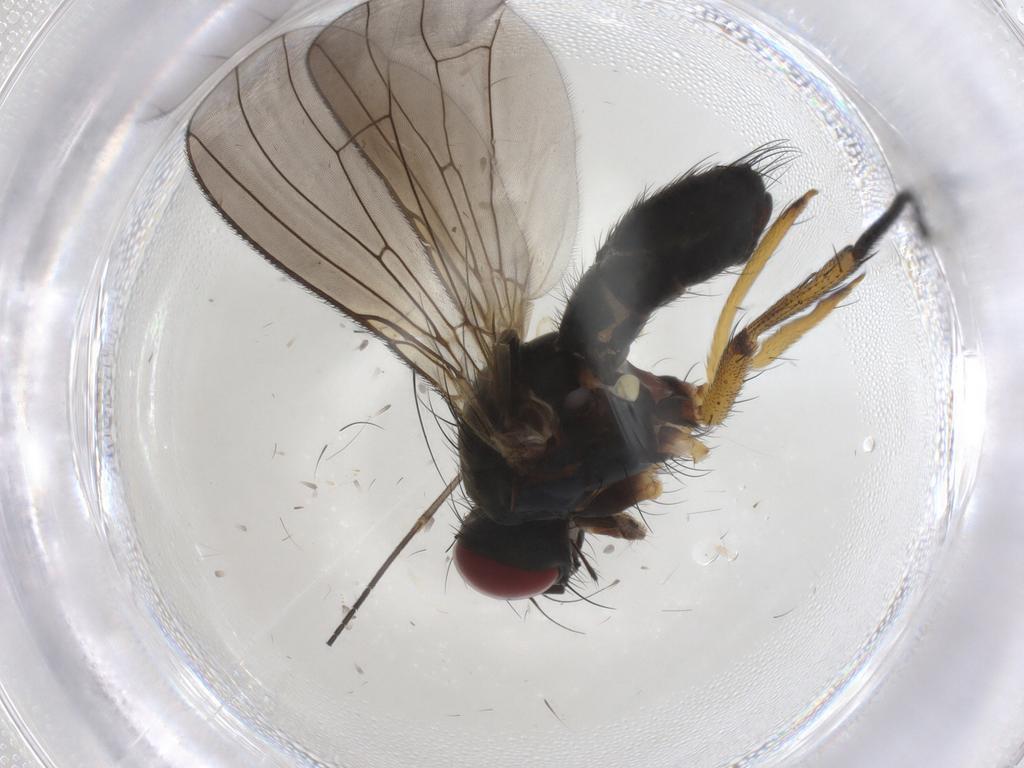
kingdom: Animalia
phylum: Arthropoda
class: Insecta
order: Diptera
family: Muscidae
